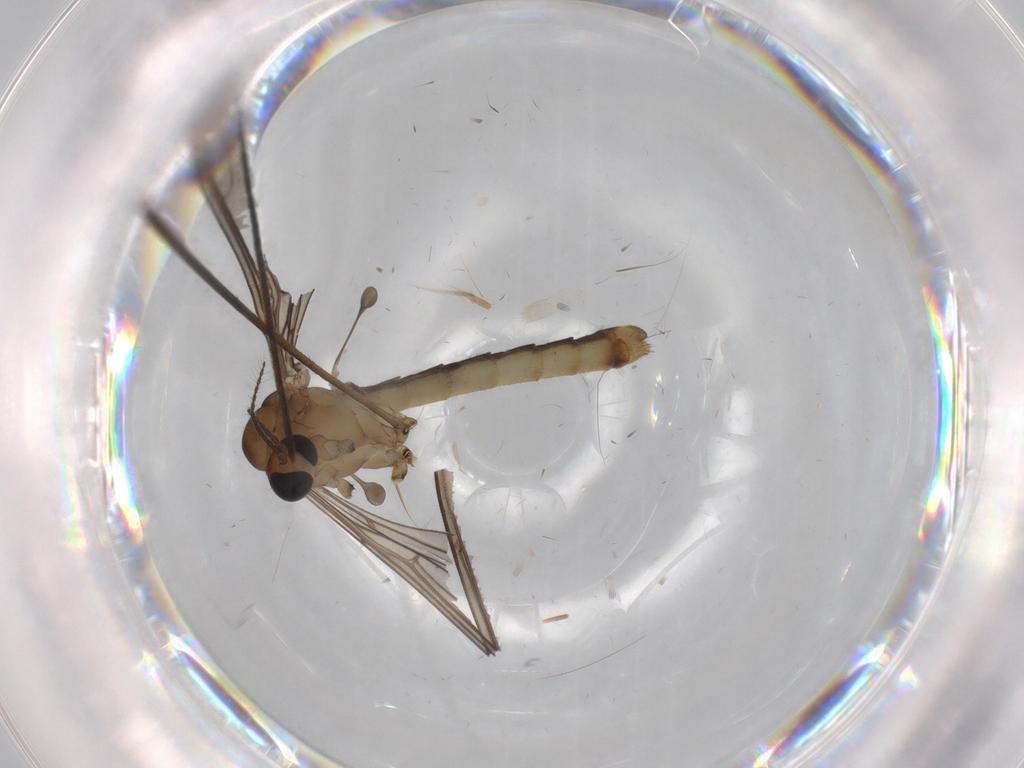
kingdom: Animalia
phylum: Arthropoda
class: Insecta
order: Diptera
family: Limoniidae
